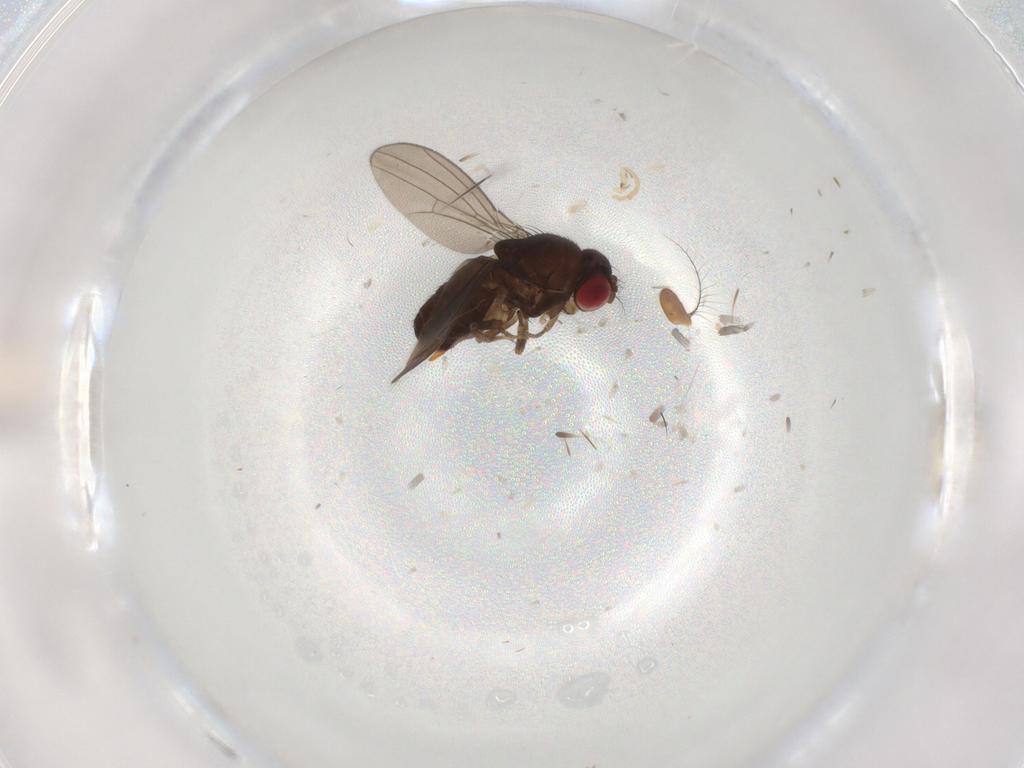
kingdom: Animalia
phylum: Arthropoda
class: Insecta
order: Diptera
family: Drosophilidae
